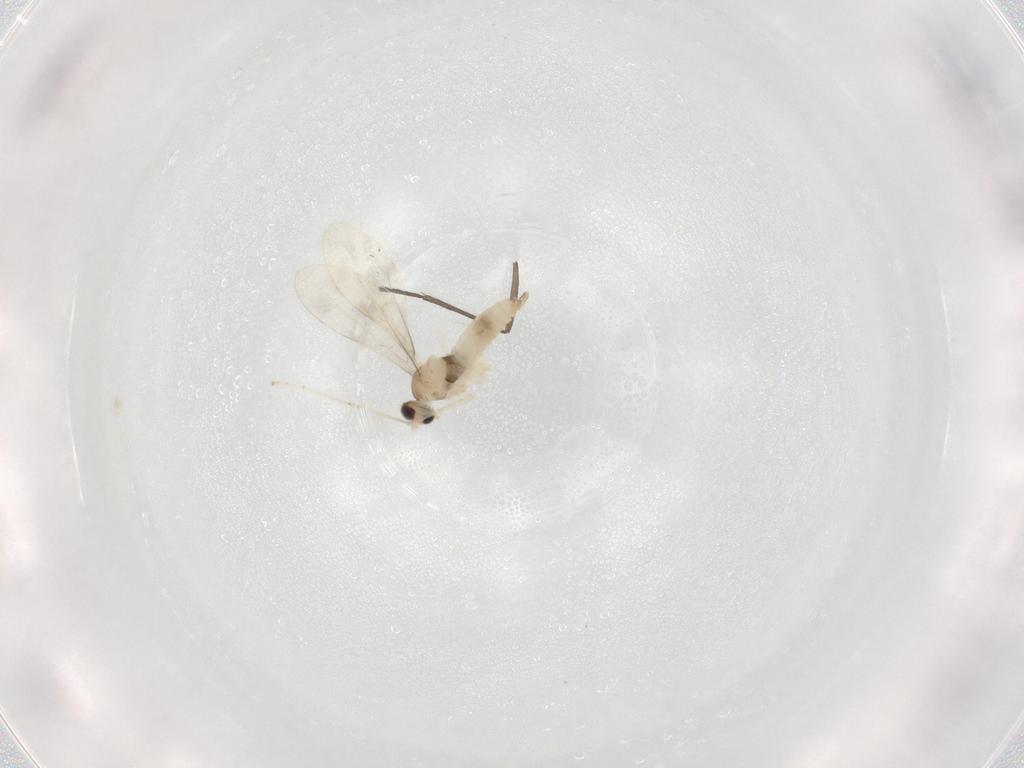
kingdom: Animalia
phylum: Arthropoda
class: Insecta
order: Diptera
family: Cecidomyiidae
